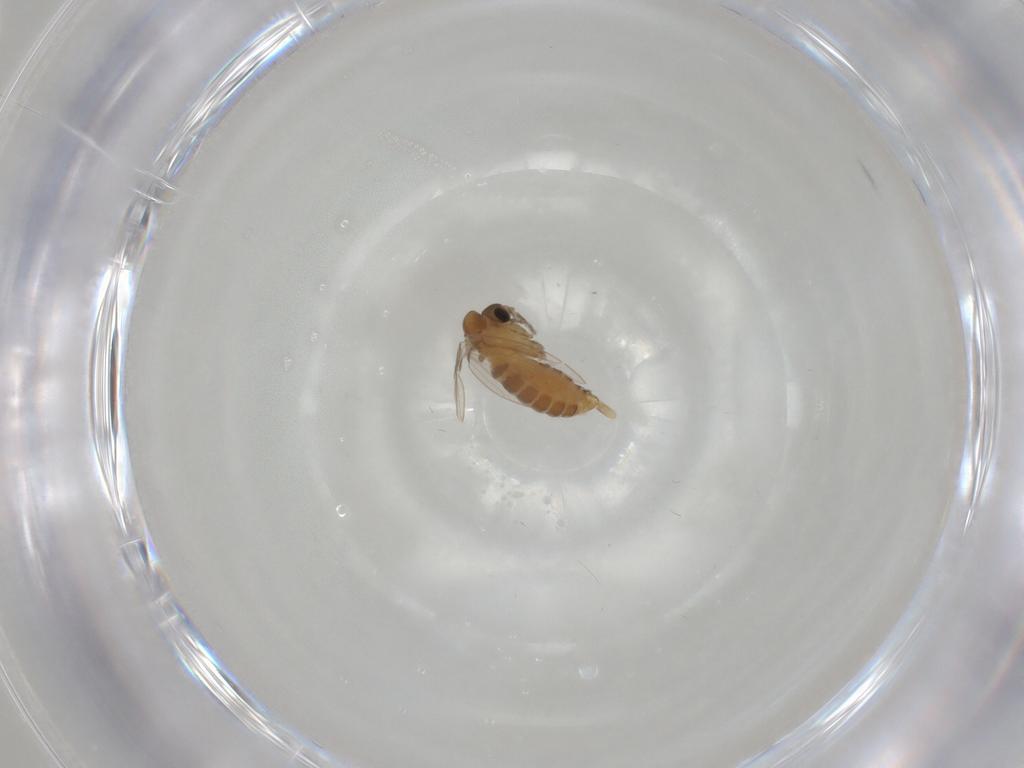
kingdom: Animalia
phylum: Arthropoda
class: Insecta
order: Diptera
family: Psychodidae
